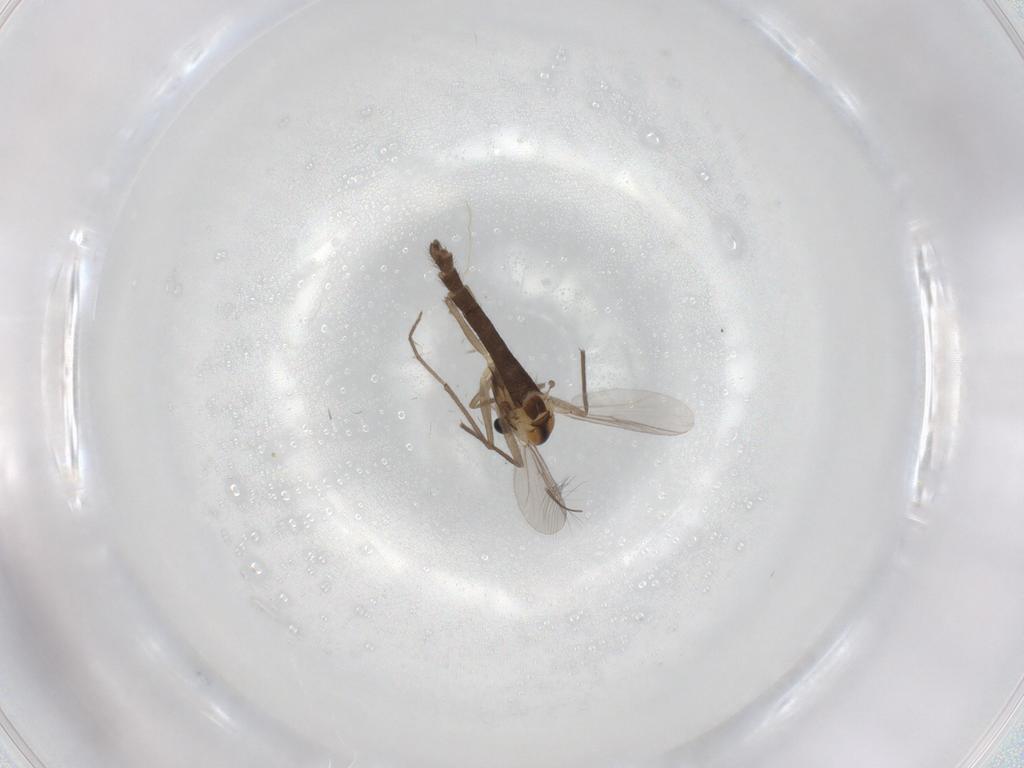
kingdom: Animalia
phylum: Arthropoda
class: Insecta
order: Diptera
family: Chironomidae
